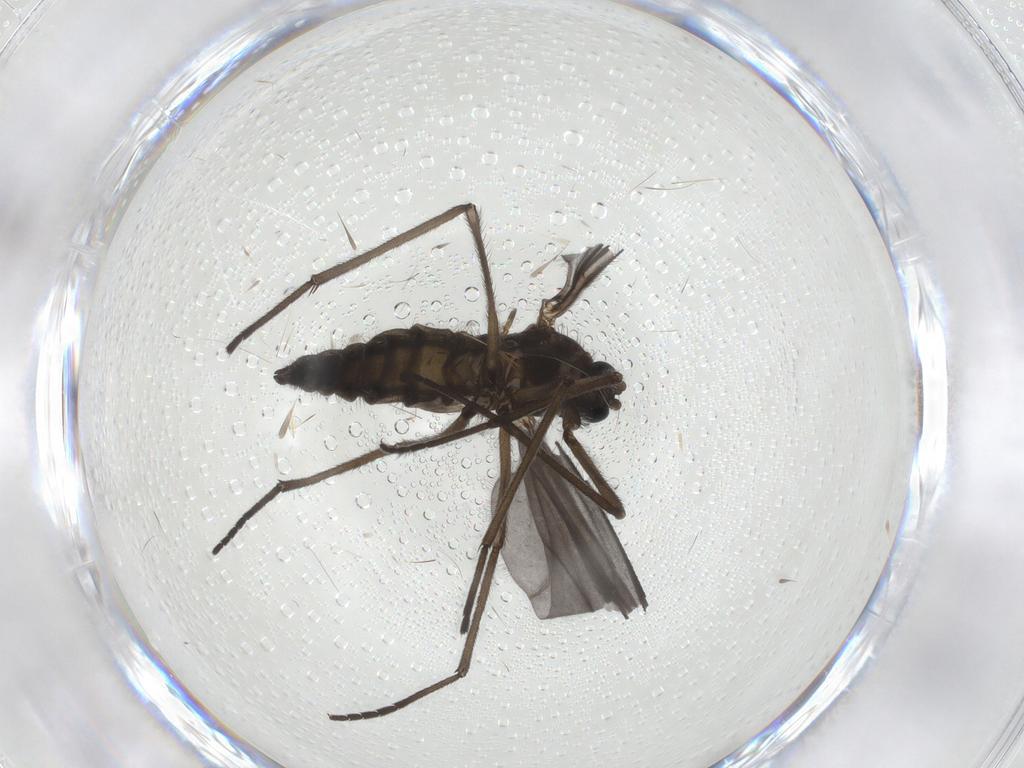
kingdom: Animalia
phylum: Arthropoda
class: Insecta
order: Diptera
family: Sciaridae
